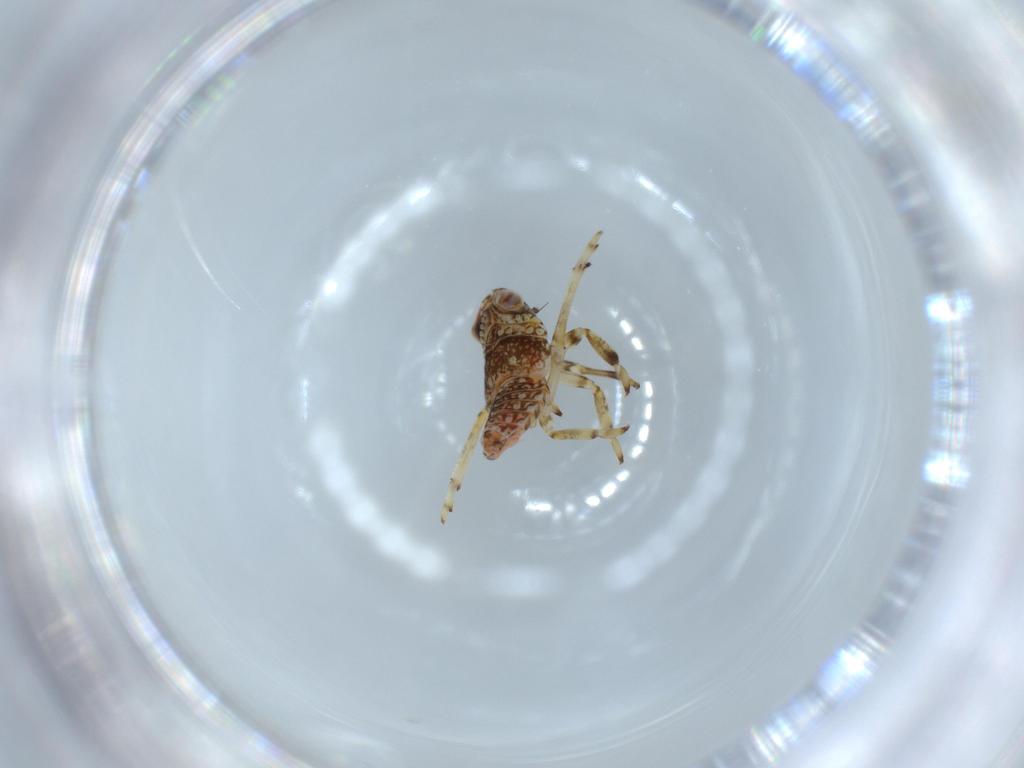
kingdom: Animalia
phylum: Arthropoda
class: Insecta
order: Hemiptera
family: Issidae
